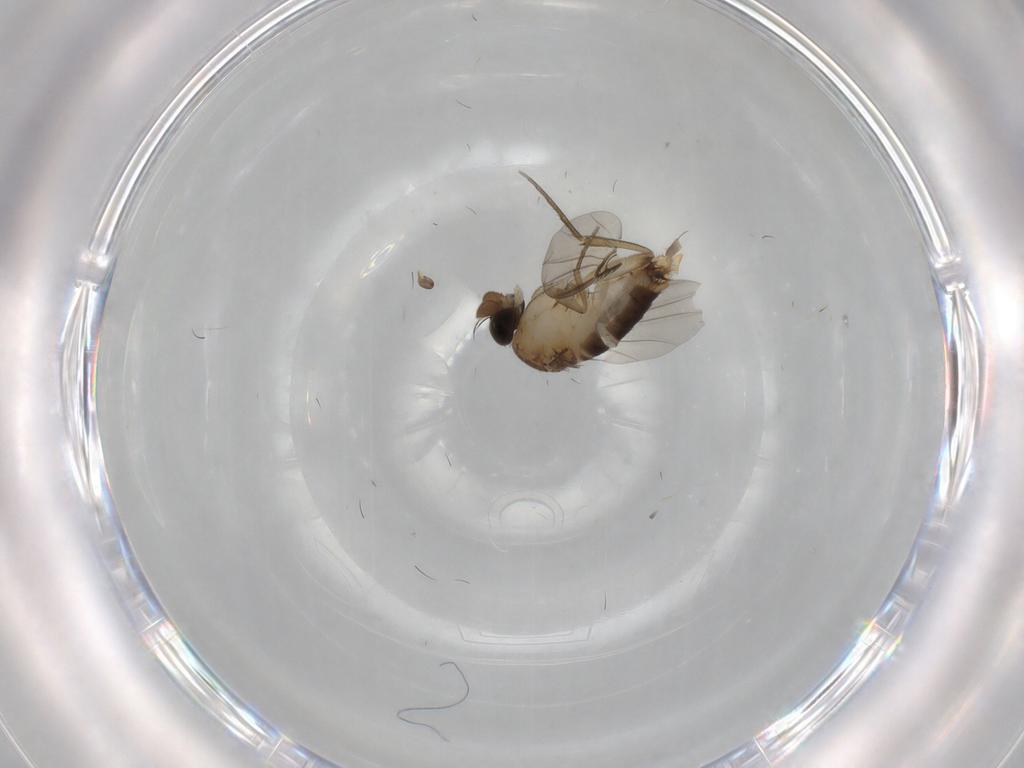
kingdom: Animalia
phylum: Arthropoda
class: Insecta
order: Diptera
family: Phoridae
